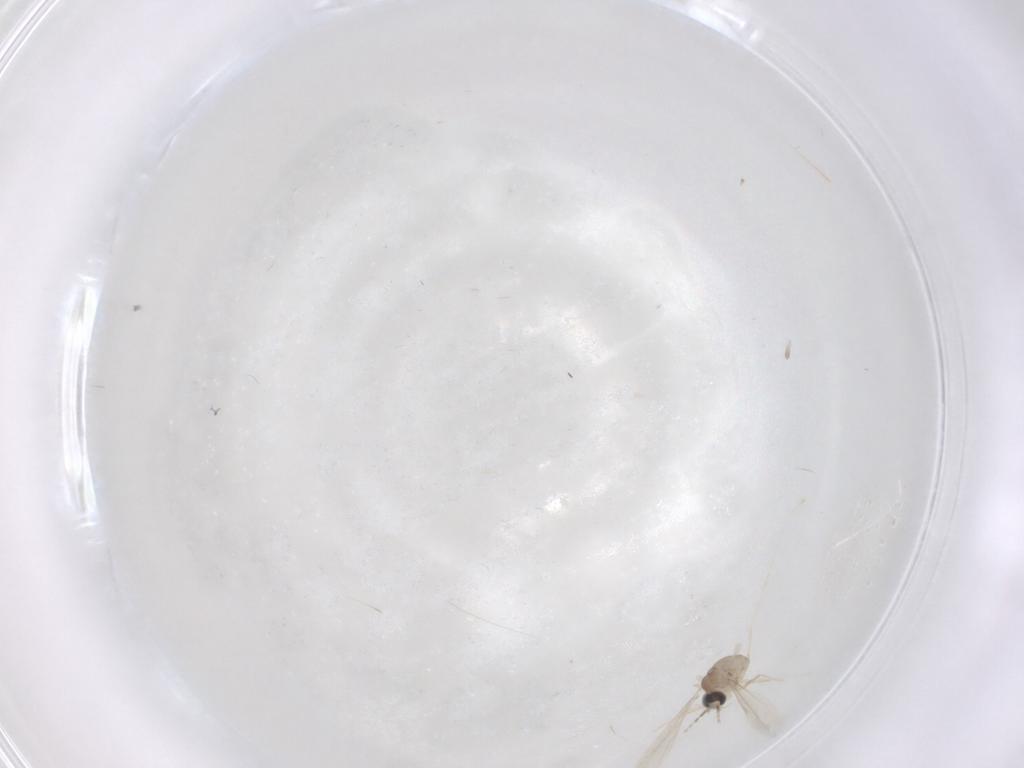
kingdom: Animalia
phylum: Arthropoda
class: Insecta
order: Diptera
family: Cecidomyiidae
